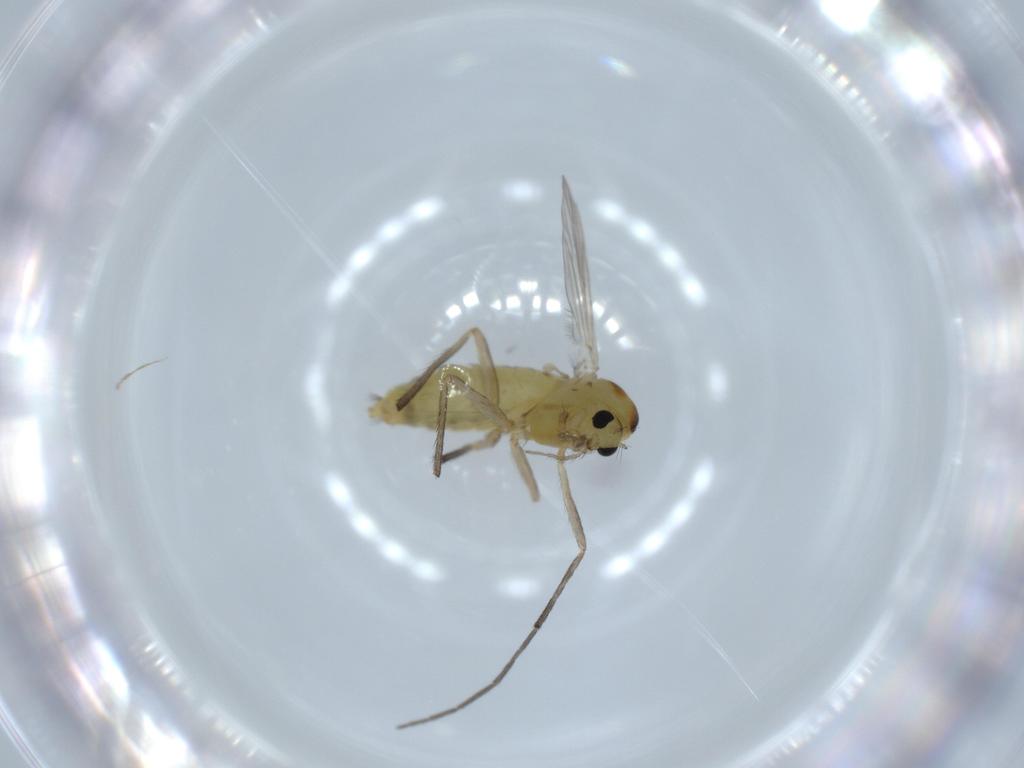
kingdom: Animalia
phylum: Arthropoda
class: Insecta
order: Diptera
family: Chironomidae
